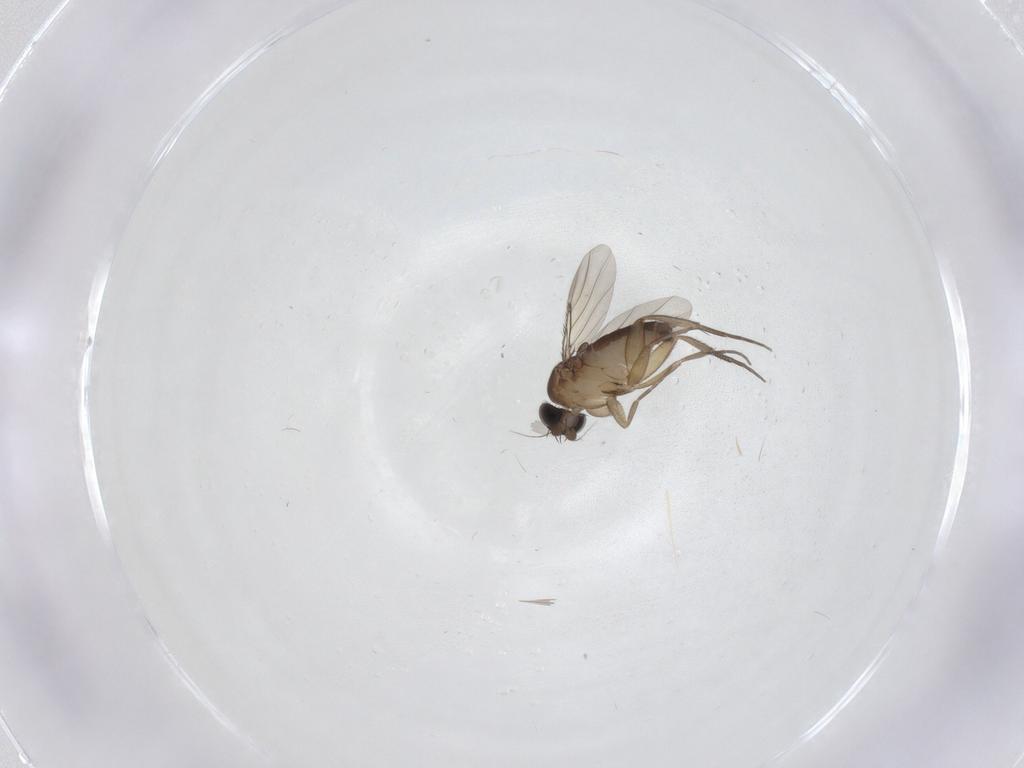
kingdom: Animalia
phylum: Arthropoda
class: Insecta
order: Diptera
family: Phoridae
